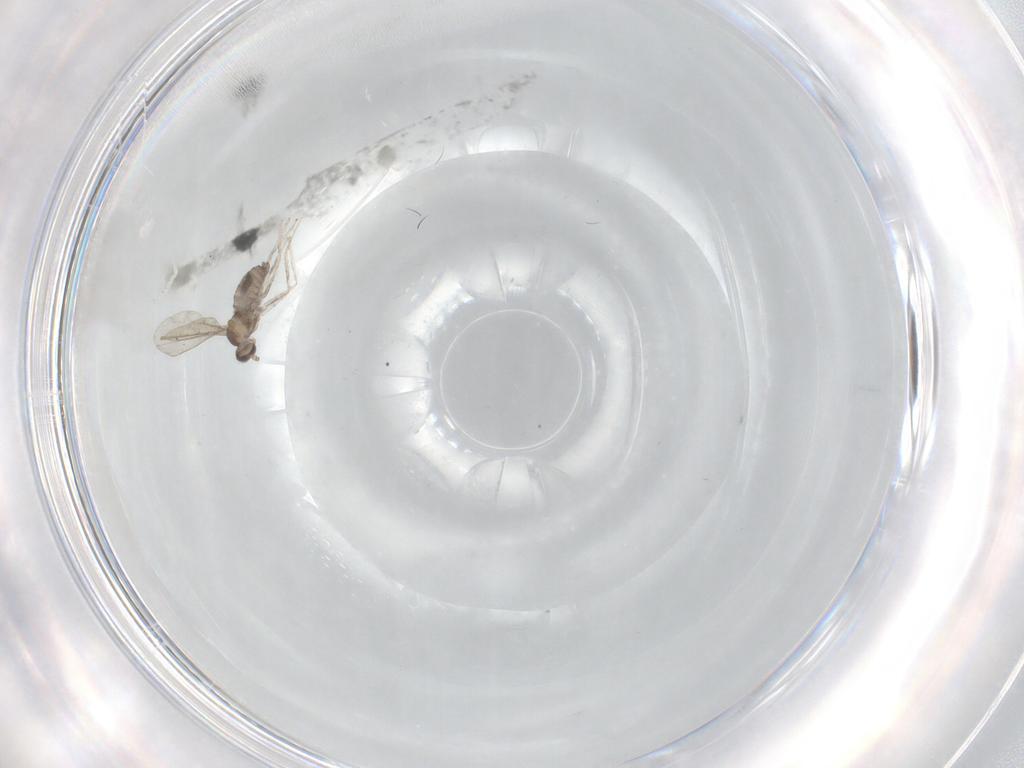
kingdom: Animalia
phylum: Arthropoda
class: Insecta
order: Diptera
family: Cecidomyiidae
